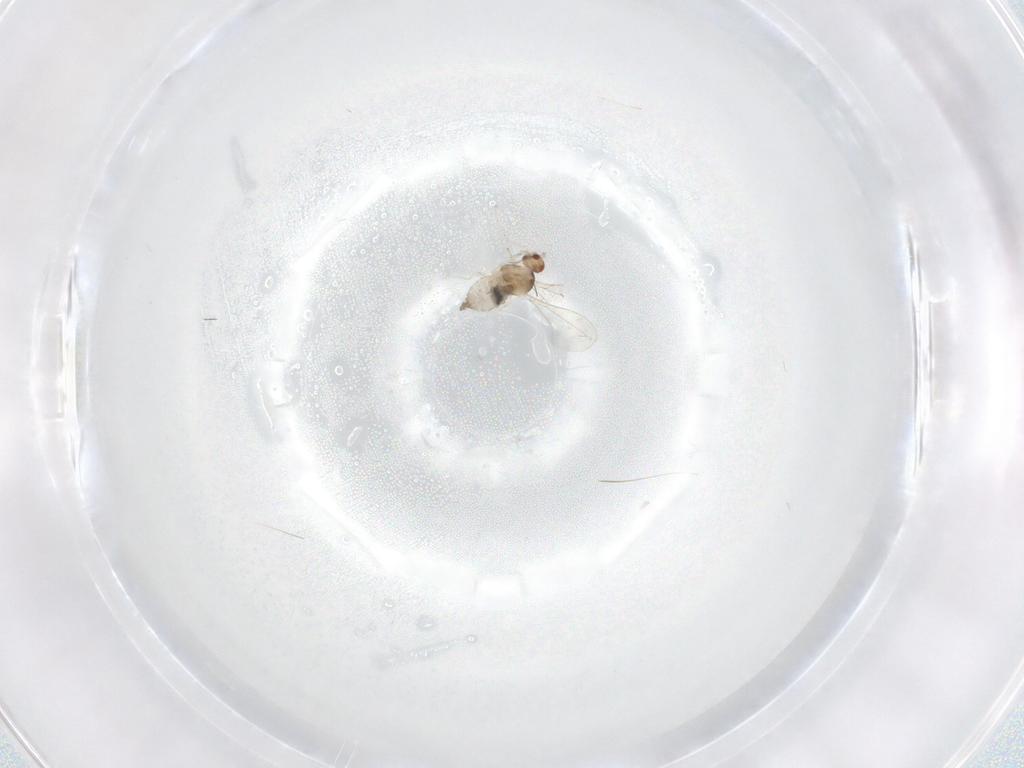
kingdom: Animalia
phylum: Arthropoda
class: Insecta
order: Diptera
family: Cecidomyiidae
